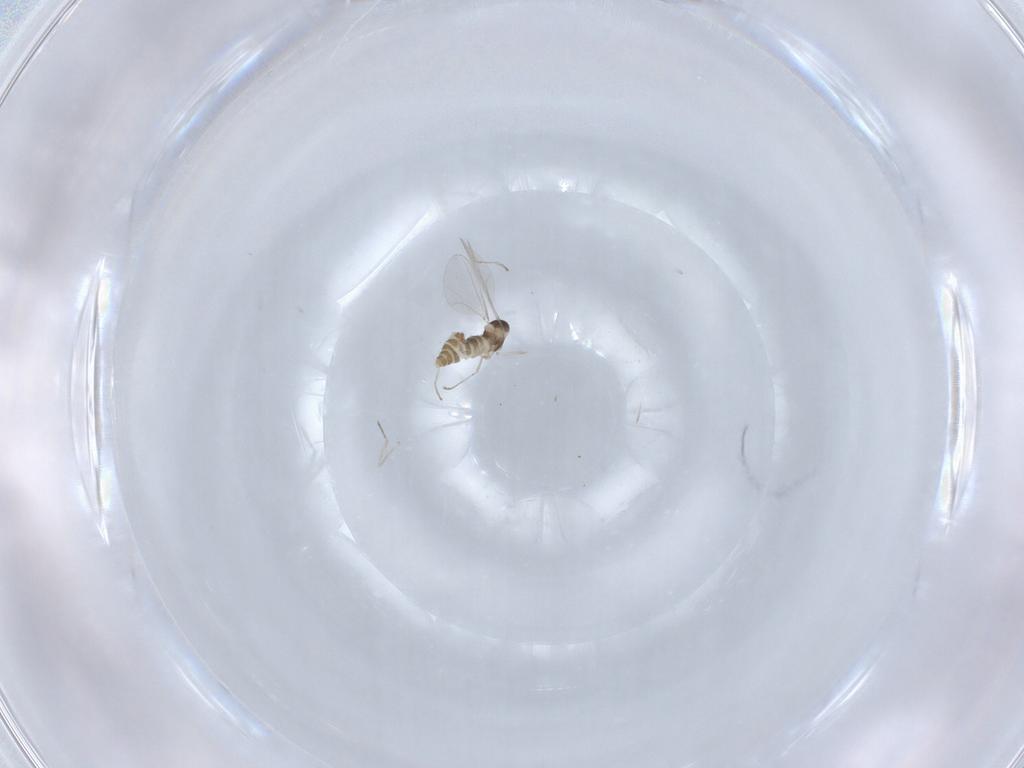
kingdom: Animalia
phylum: Arthropoda
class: Insecta
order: Diptera
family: Cecidomyiidae
